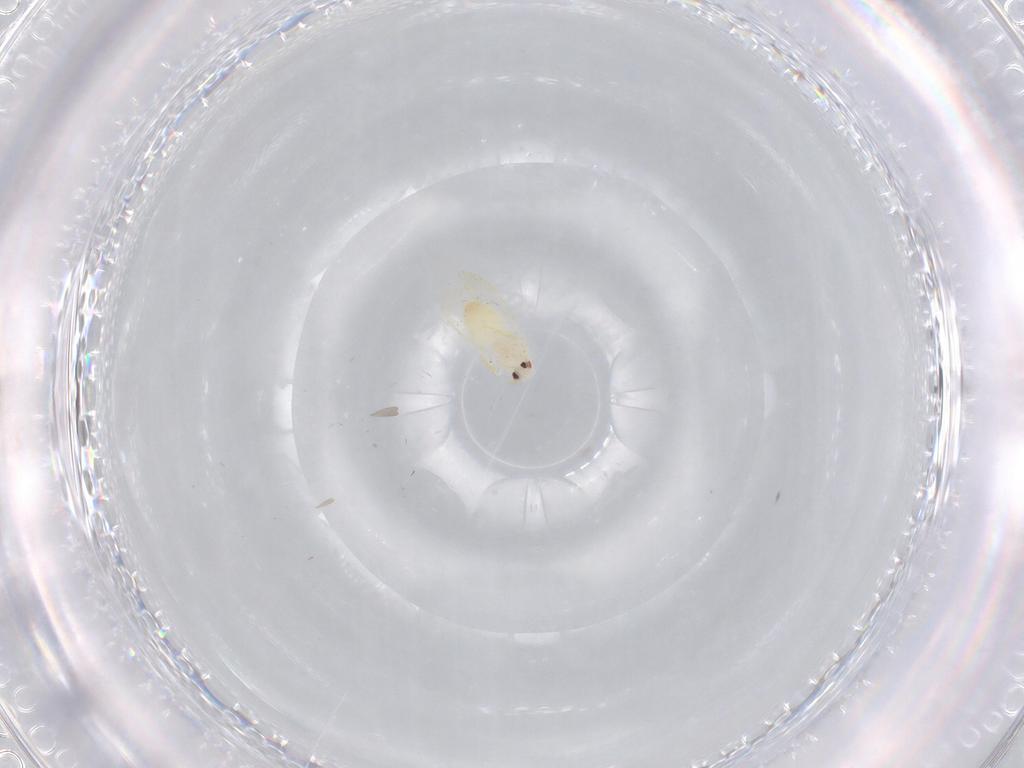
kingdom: Animalia
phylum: Arthropoda
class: Insecta
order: Hemiptera
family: Aleyrodidae
